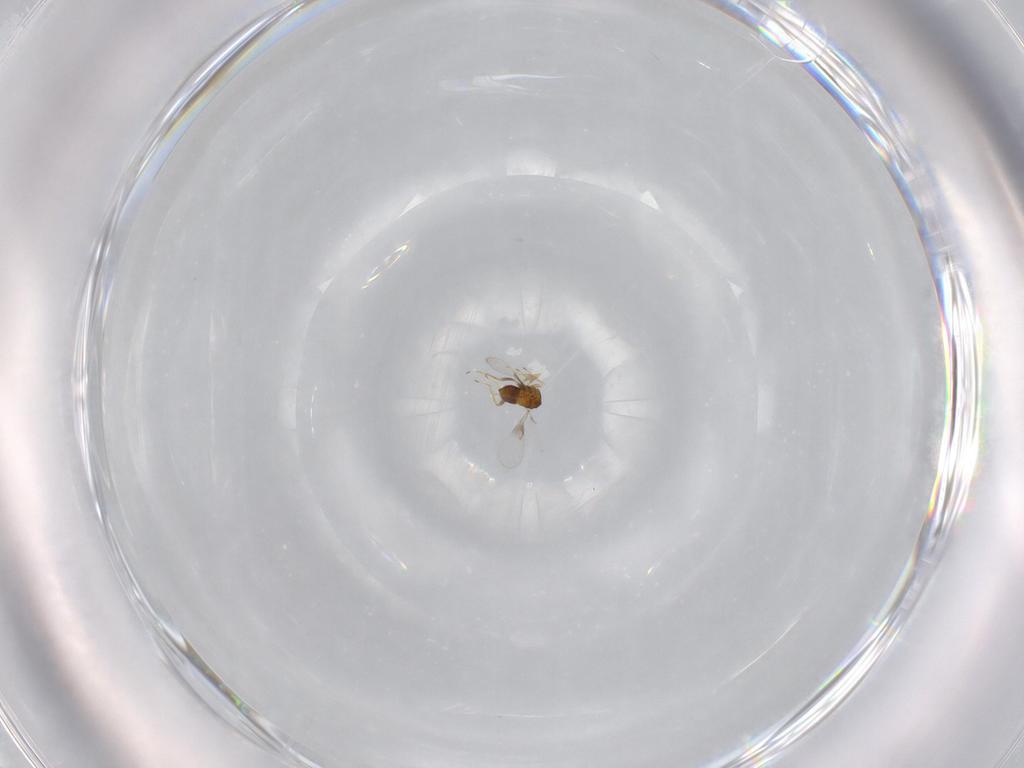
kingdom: Animalia
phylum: Arthropoda
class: Insecta
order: Hymenoptera
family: Trichogrammatidae
